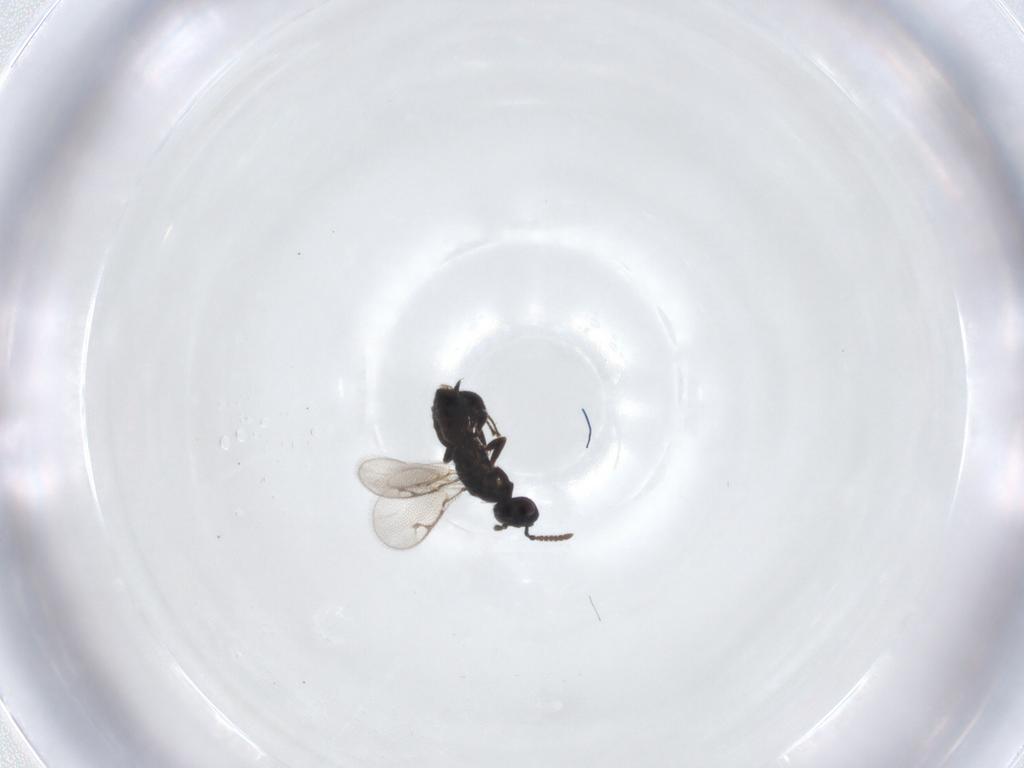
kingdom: Animalia
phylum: Arthropoda
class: Insecta
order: Hymenoptera
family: Pirenidae
